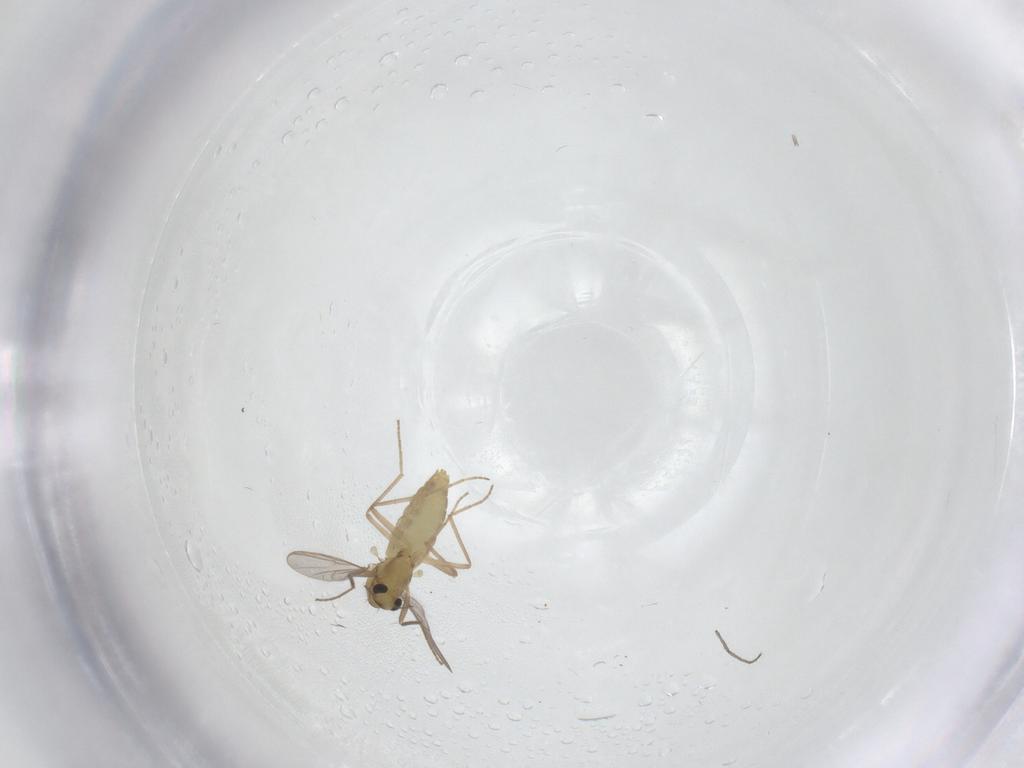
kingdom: Animalia
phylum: Arthropoda
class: Insecta
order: Diptera
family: Chironomidae
